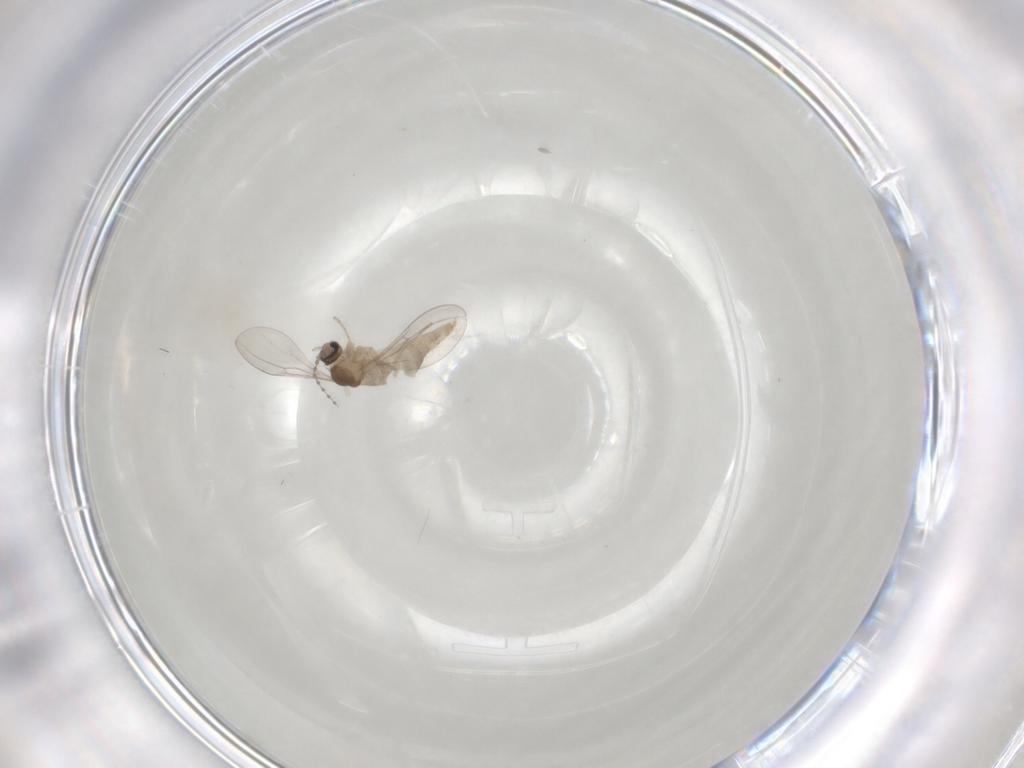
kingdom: Animalia
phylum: Arthropoda
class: Insecta
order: Diptera
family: Cecidomyiidae
